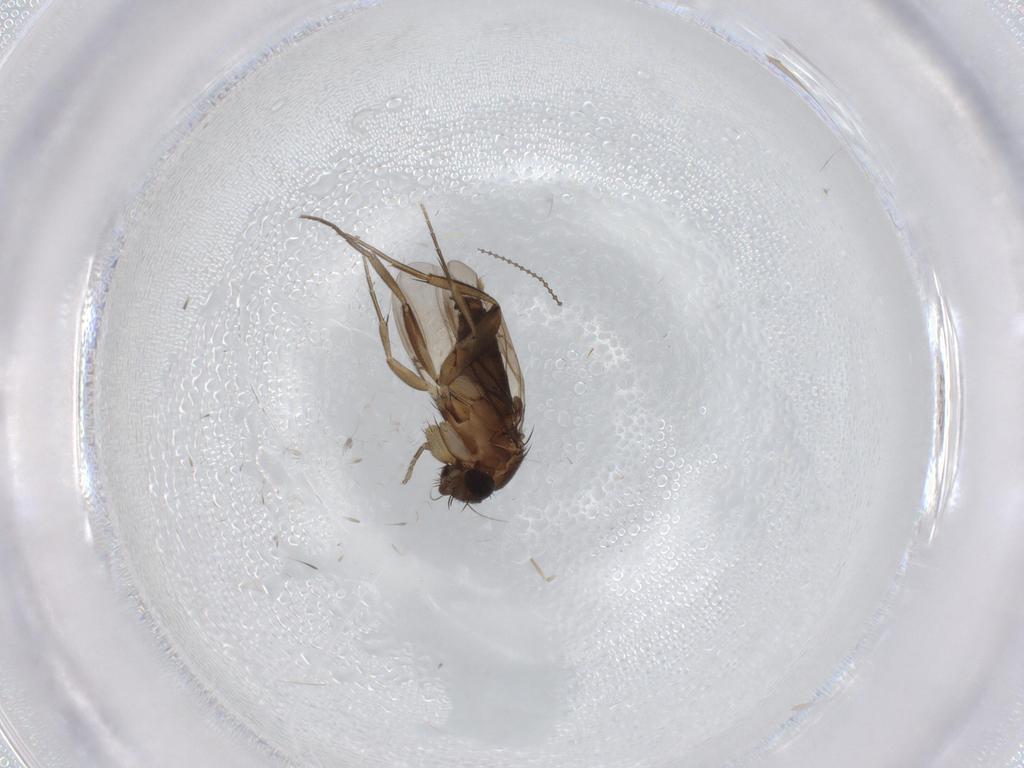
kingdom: Animalia
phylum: Arthropoda
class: Insecta
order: Diptera
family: Phoridae
